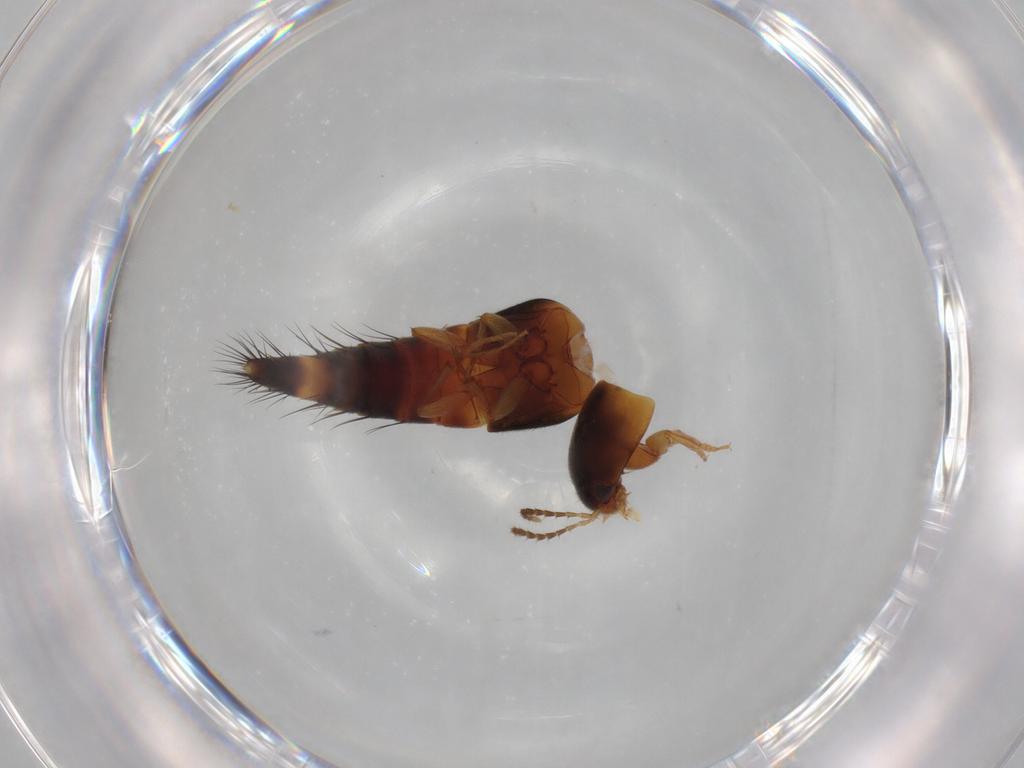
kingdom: Animalia
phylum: Arthropoda
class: Insecta
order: Coleoptera
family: Staphylinidae
